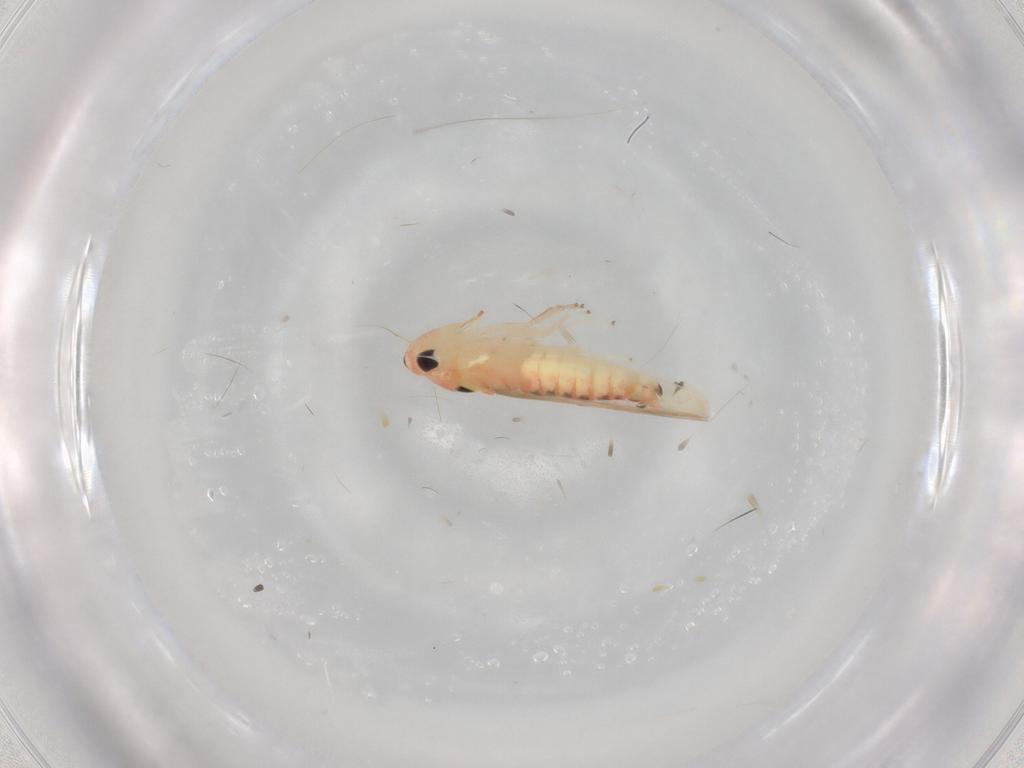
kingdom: Animalia
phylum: Arthropoda
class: Insecta
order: Hemiptera
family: Cicadellidae
